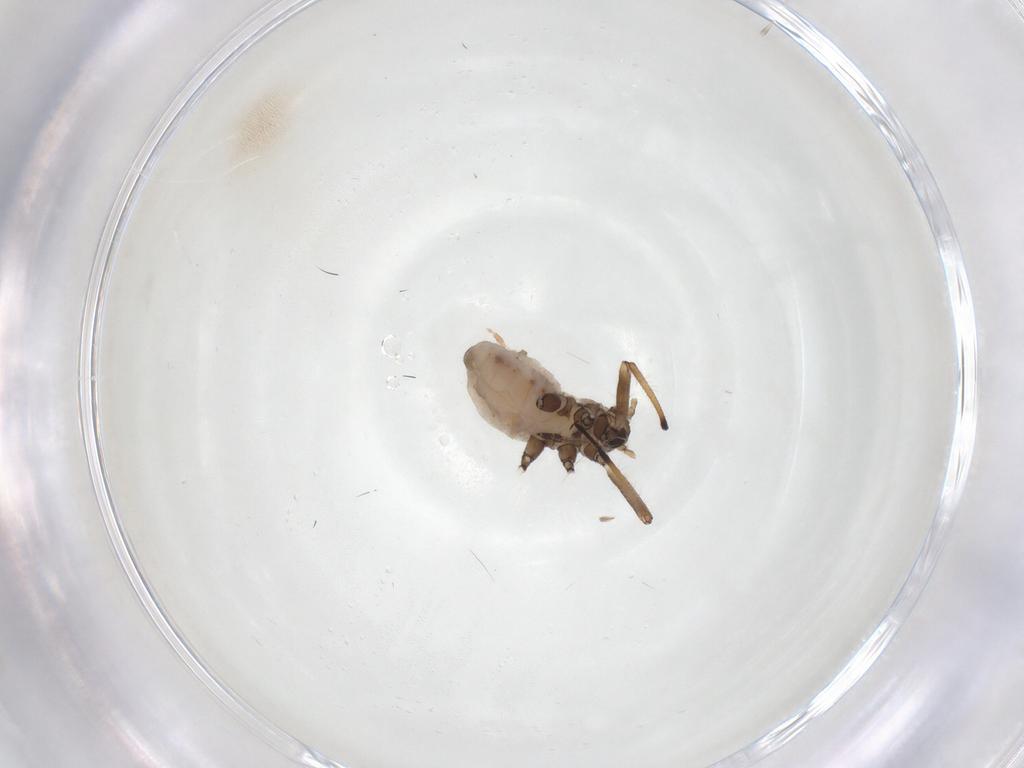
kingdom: Animalia
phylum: Arthropoda
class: Insecta
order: Hemiptera
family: Lachnidae
